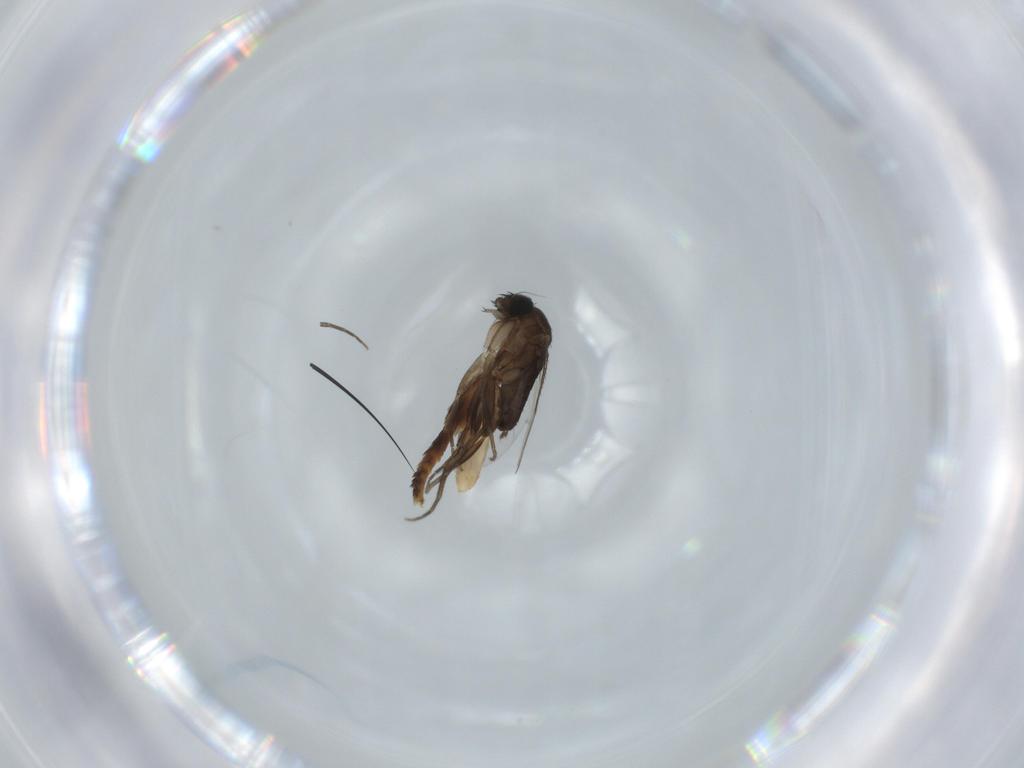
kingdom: Animalia
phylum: Arthropoda
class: Insecta
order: Diptera
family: Phoridae
